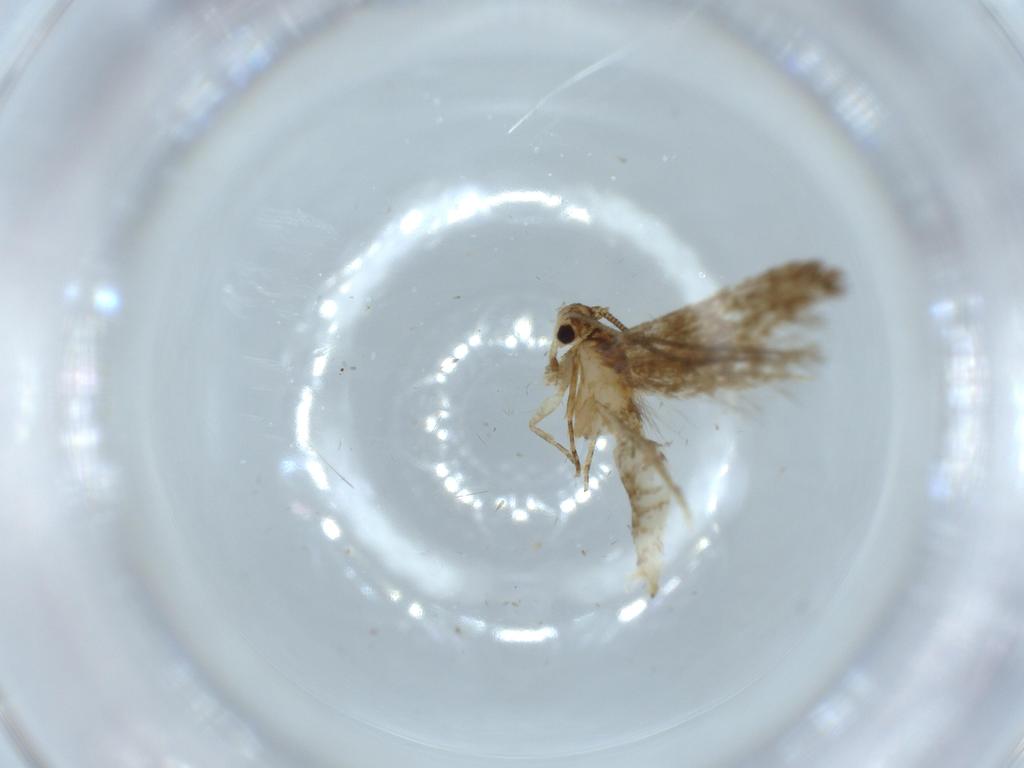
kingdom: Animalia
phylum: Arthropoda
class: Insecta
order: Lepidoptera
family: Tineidae
